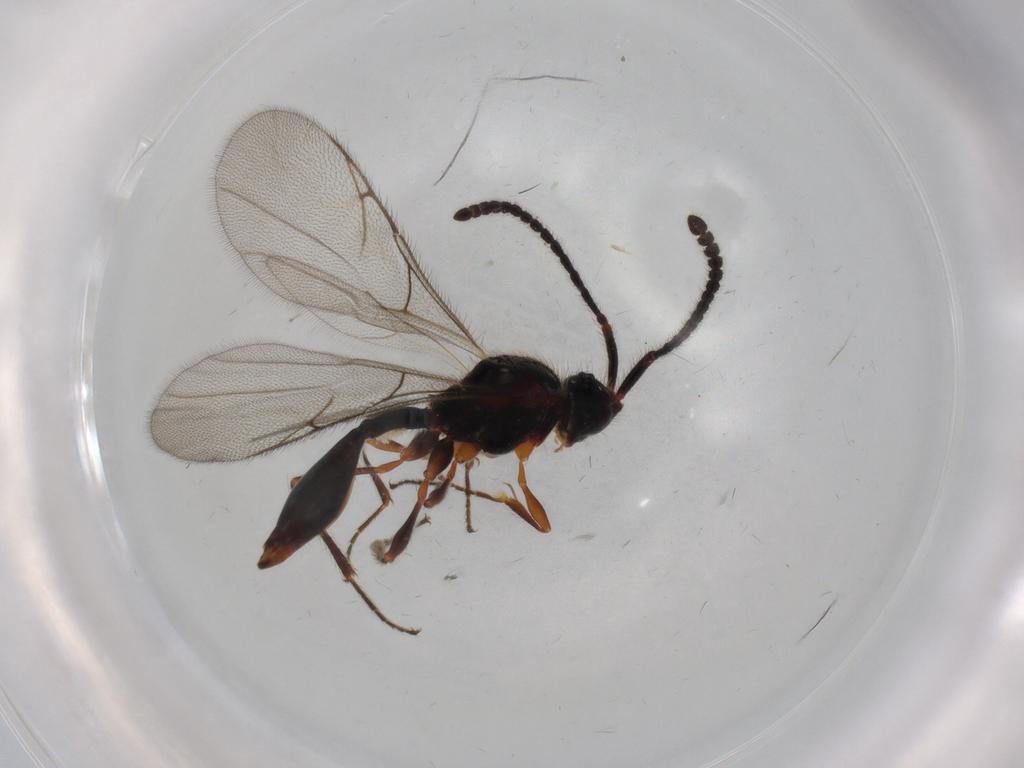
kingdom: Animalia
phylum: Arthropoda
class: Insecta
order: Hymenoptera
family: Diapriidae
